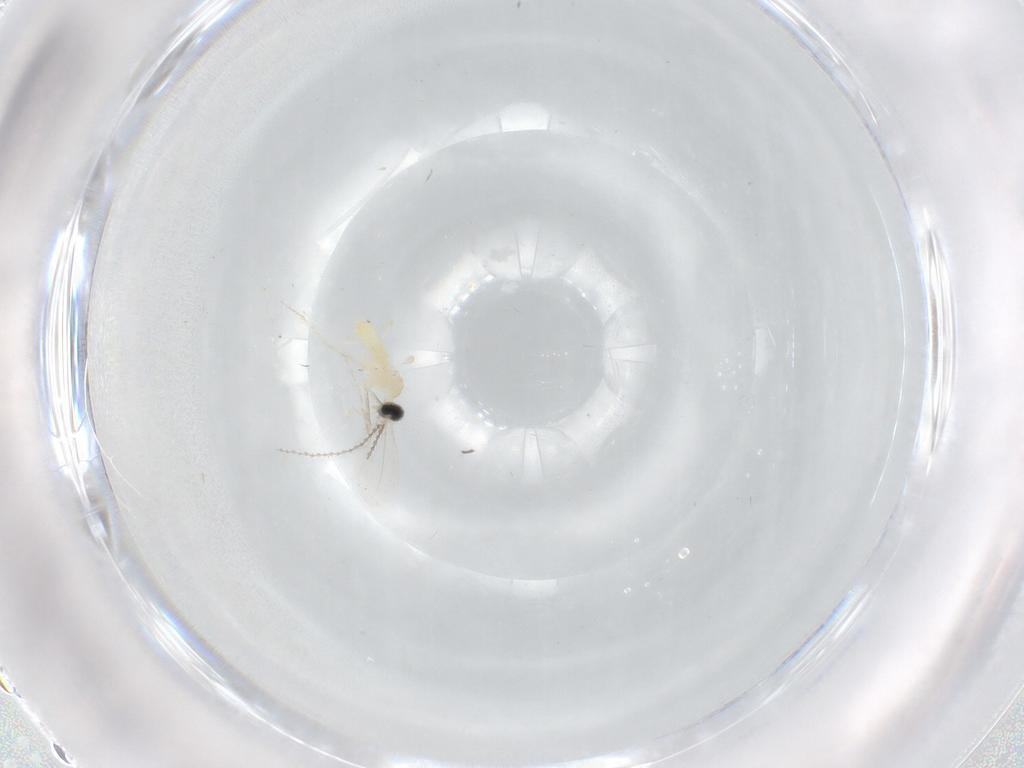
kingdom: Animalia
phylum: Arthropoda
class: Insecta
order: Diptera
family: Cecidomyiidae
